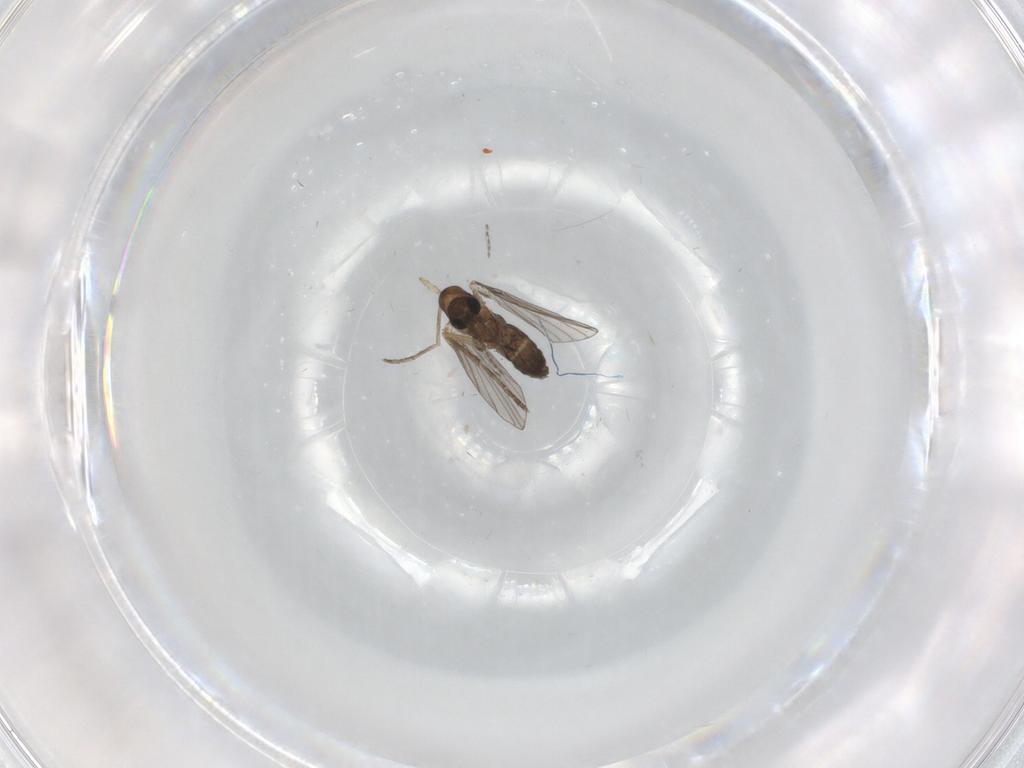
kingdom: Animalia
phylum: Arthropoda
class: Insecta
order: Diptera
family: Psychodidae
